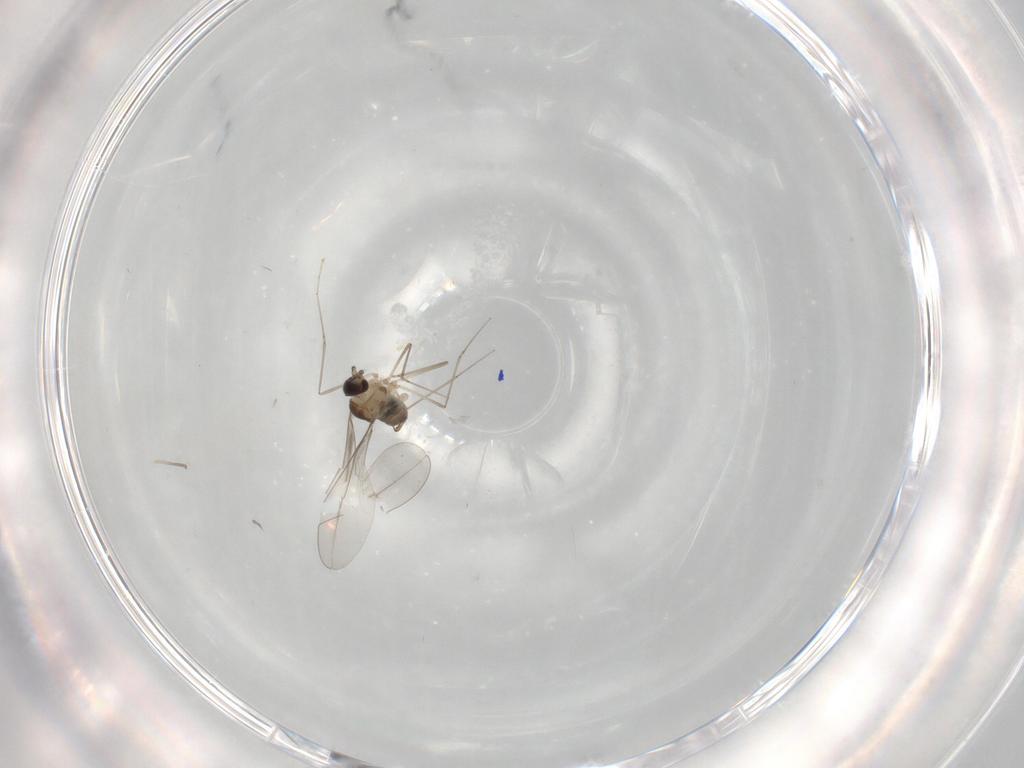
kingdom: Animalia
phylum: Arthropoda
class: Insecta
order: Diptera
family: Cecidomyiidae
